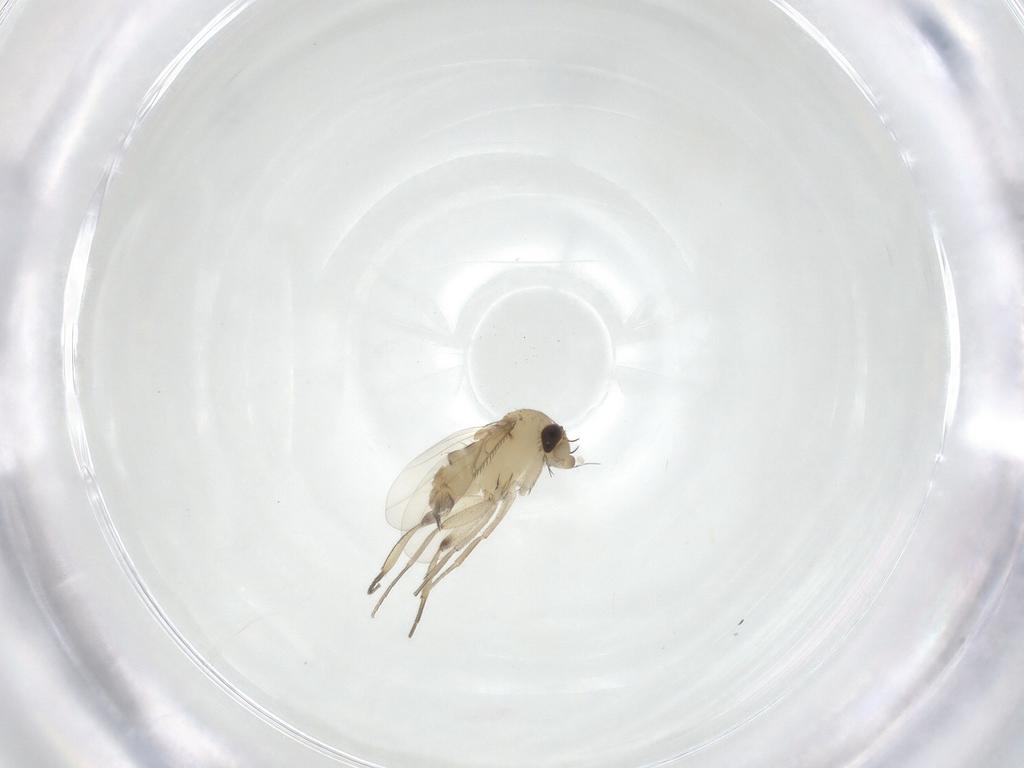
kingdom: Animalia
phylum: Arthropoda
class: Insecta
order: Diptera
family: Phoridae
